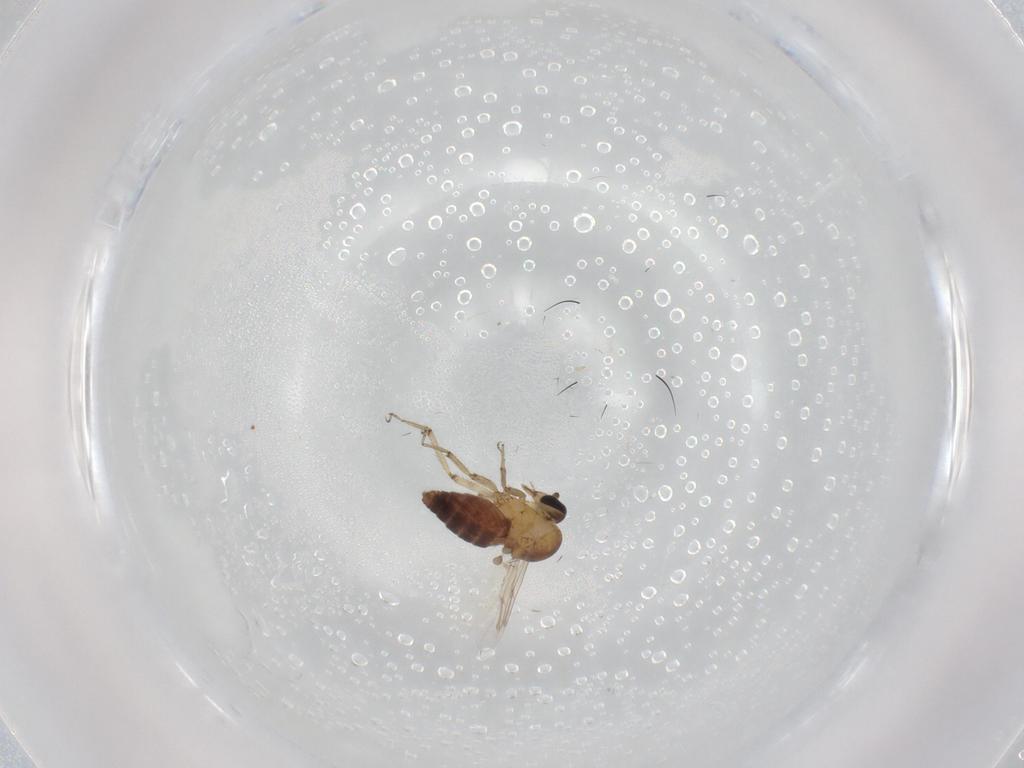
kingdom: Animalia
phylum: Arthropoda
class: Insecta
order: Diptera
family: Ceratopogonidae
